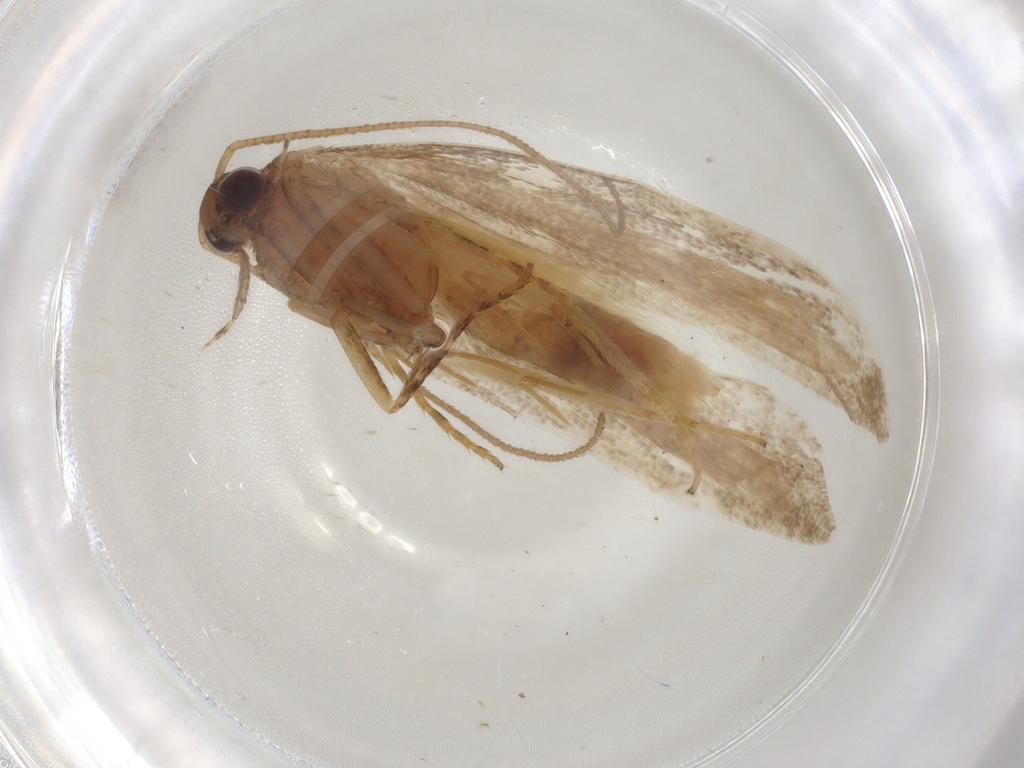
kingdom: Animalia
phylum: Arthropoda
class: Insecta
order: Lepidoptera
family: Gelechiidae
